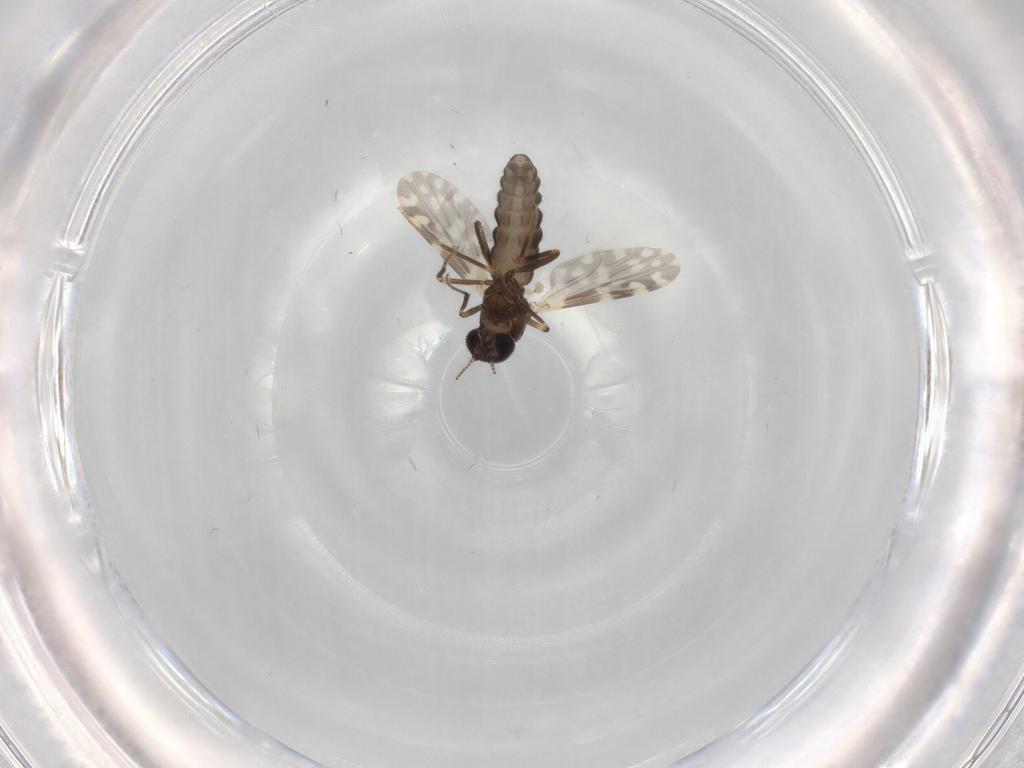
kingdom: Animalia
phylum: Arthropoda
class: Insecta
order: Diptera
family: Ceratopogonidae
